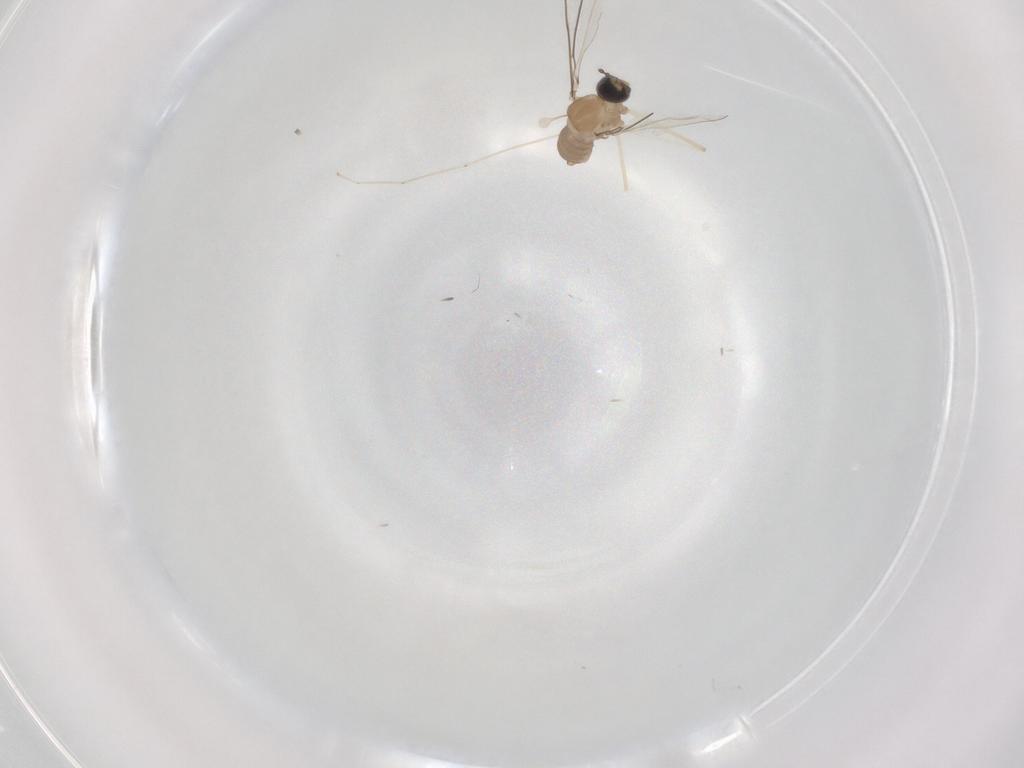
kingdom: Animalia
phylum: Arthropoda
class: Insecta
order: Diptera
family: Phoridae
